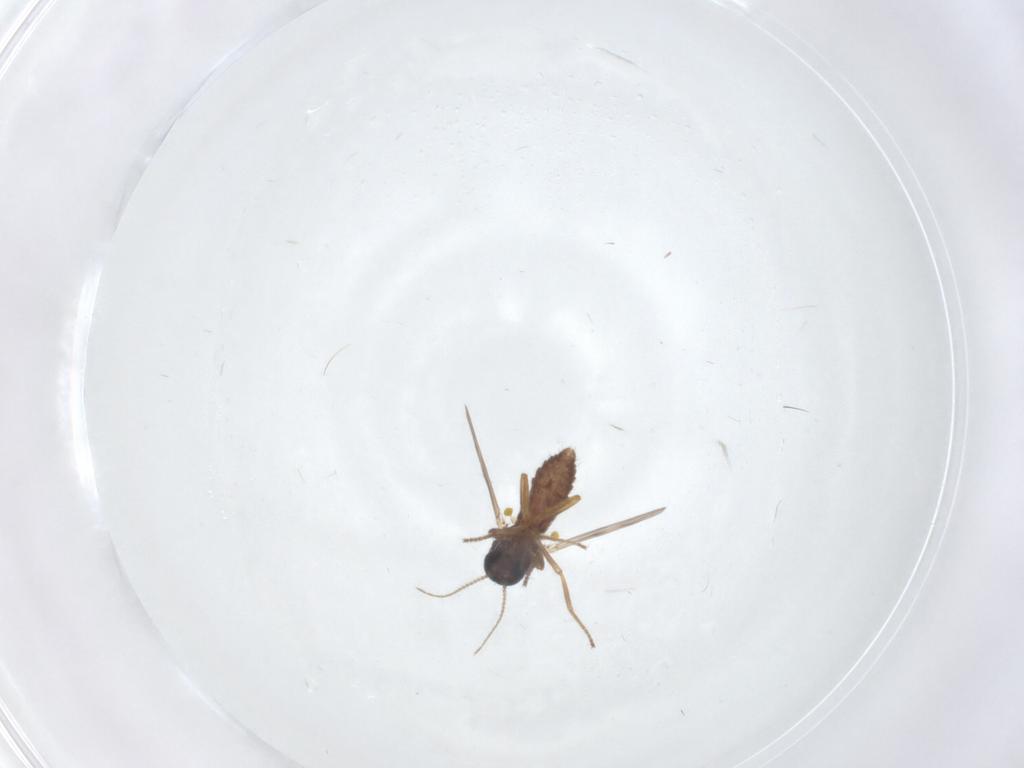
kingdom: Animalia
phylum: Arthropoda
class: Insecta
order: Diptera
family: Ceratopogonidae
